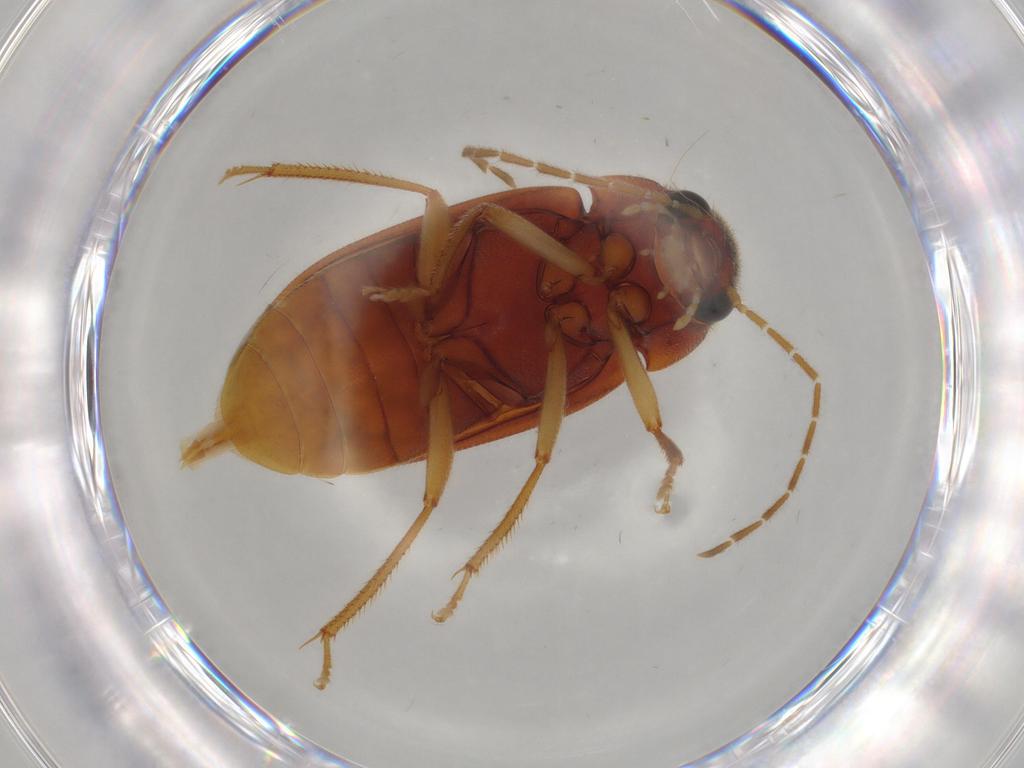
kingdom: Animalia
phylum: Arthropoda
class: Insecta
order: Coleoptera
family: Ptilodactylidae
